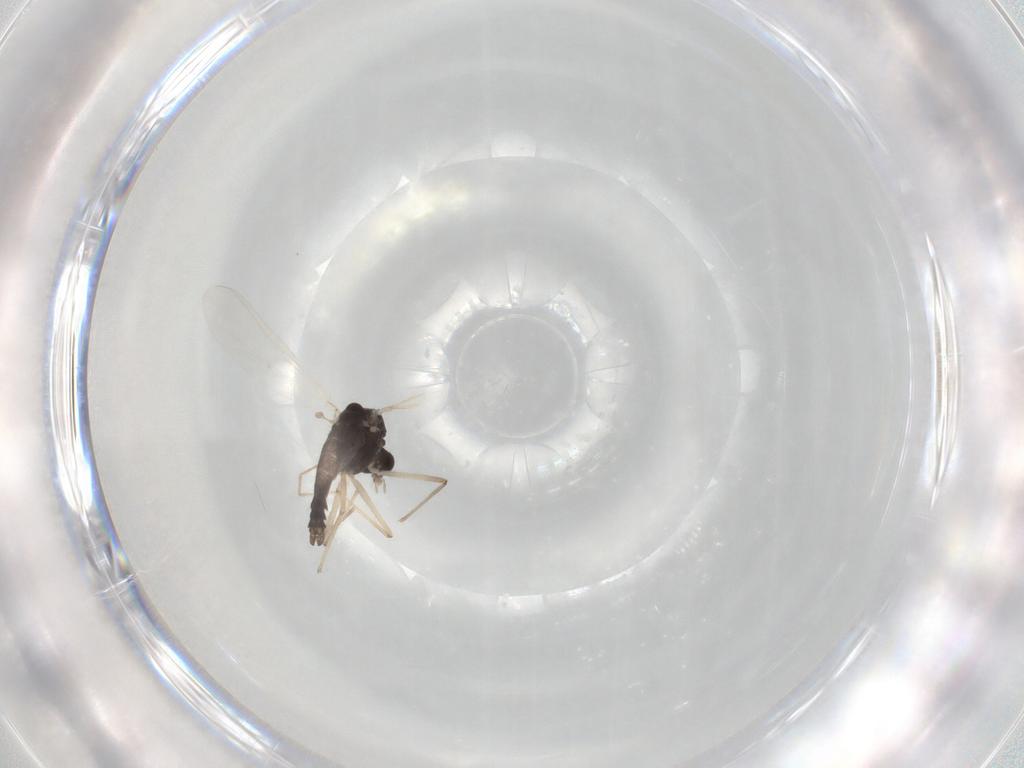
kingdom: Animalia
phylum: Arthropoda
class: Insecta
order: Diptera
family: Chironomidae
